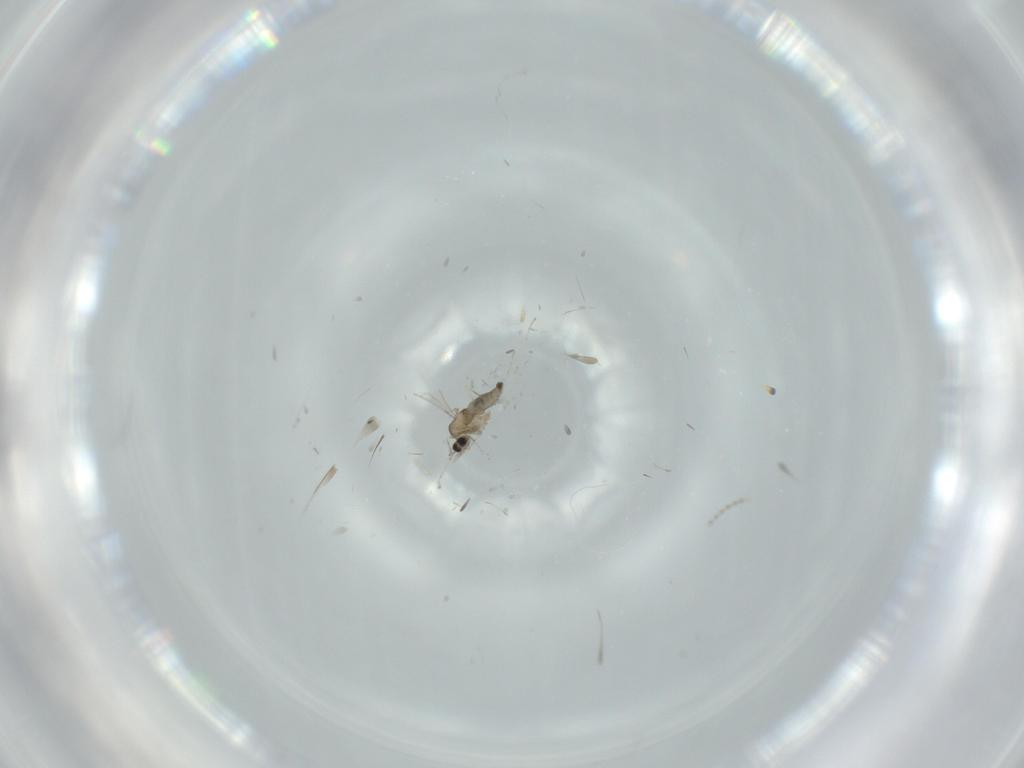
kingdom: Animalia
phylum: Arthropoda
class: Insecta
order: Diptera
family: Cecidomyiidae
